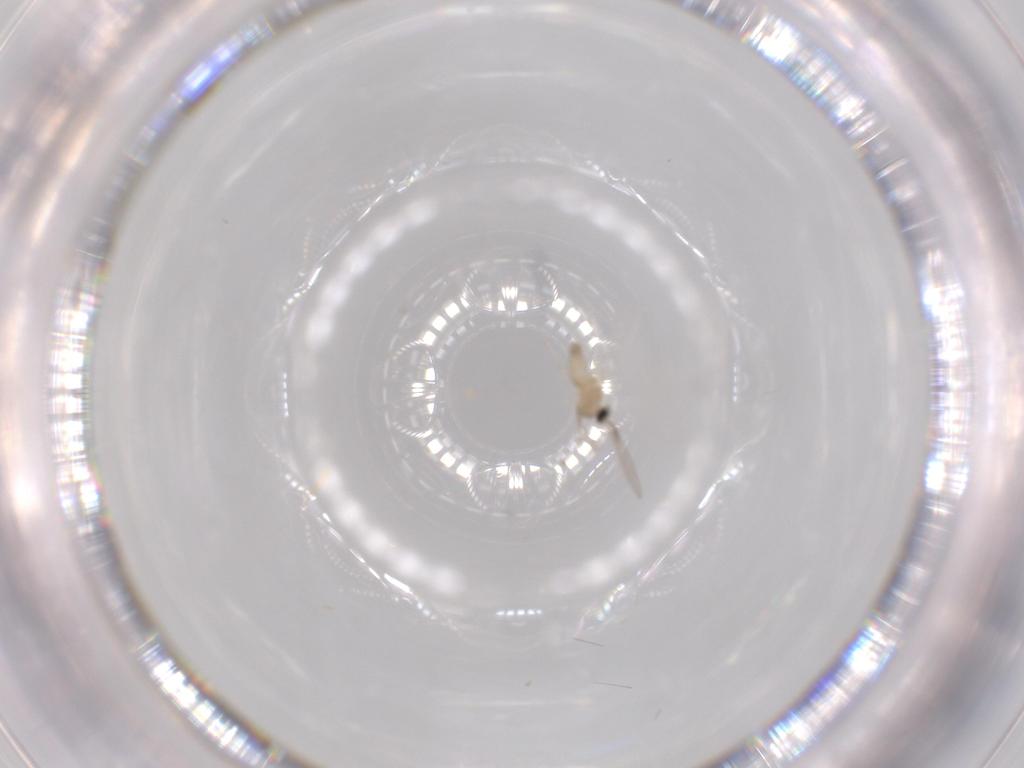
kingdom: Animalia
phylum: Arthropoda
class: Insecta
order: Diptera
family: Cecidomyiidae
